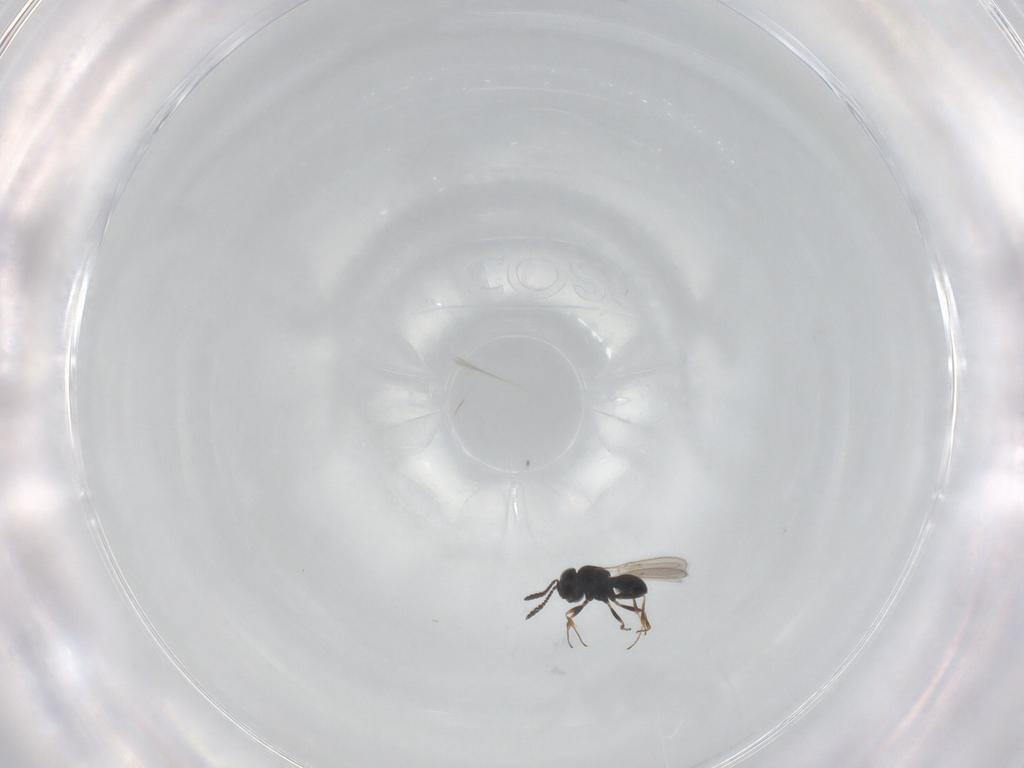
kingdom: Animalia
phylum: Arthropoda
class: Insecta
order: Hymenoptera
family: Scelionidae
